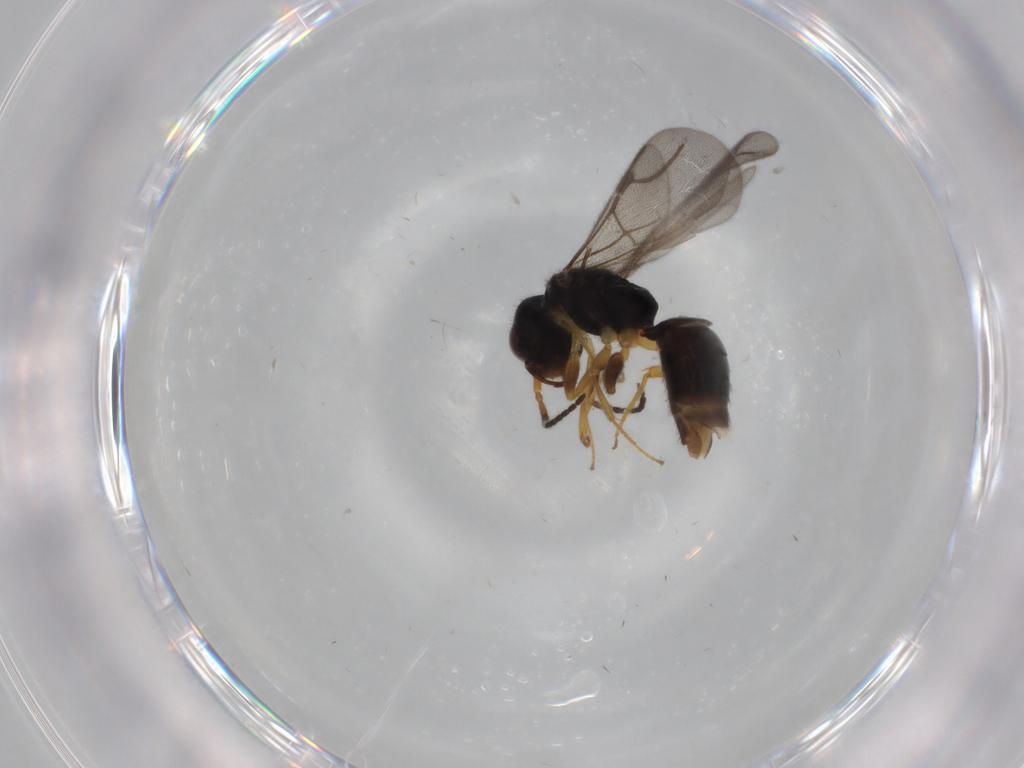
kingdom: Animalia
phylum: Arthropoda
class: Insecta
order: Hymenoptera
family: Bethylidae
